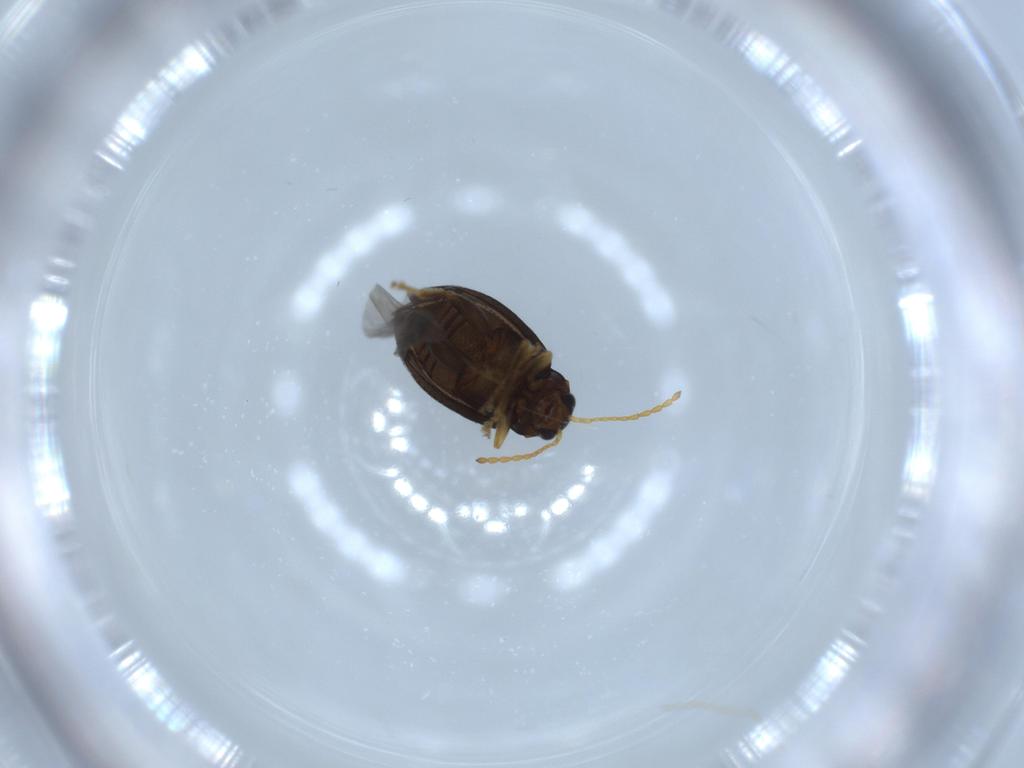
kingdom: Animalia
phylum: Arthropoda
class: Insecta
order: Coleoptera
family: Chrysomelidae
